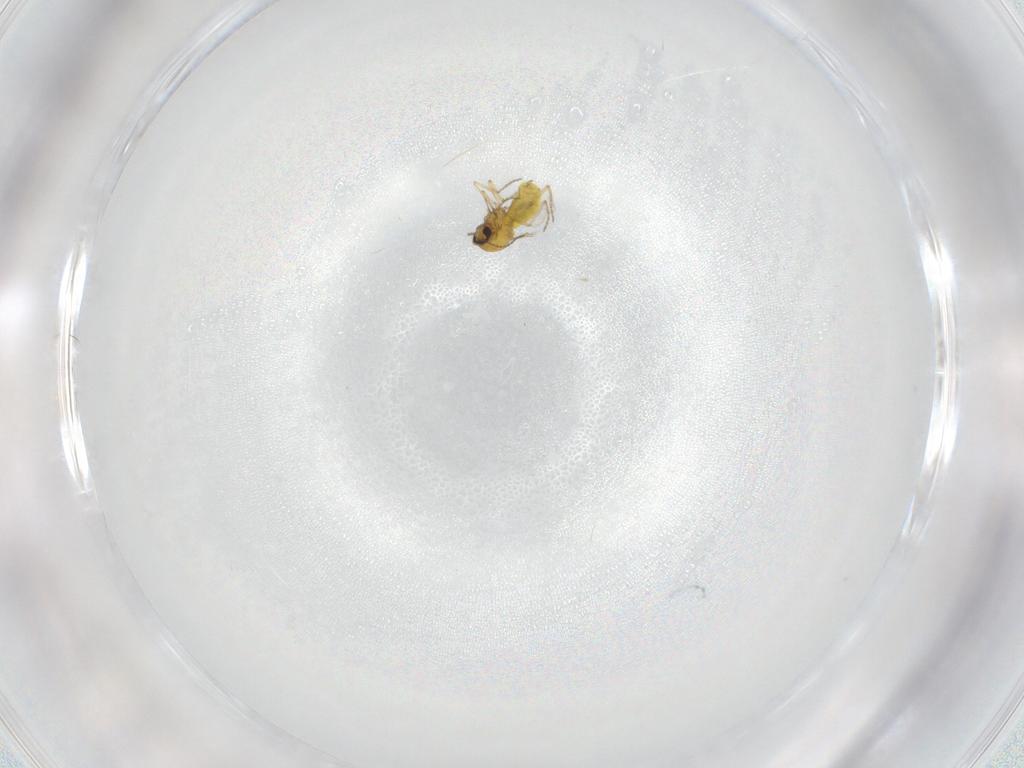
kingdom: Animalia
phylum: Arthropoda
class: Insecta
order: Diptera
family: Ceratopogonidae
